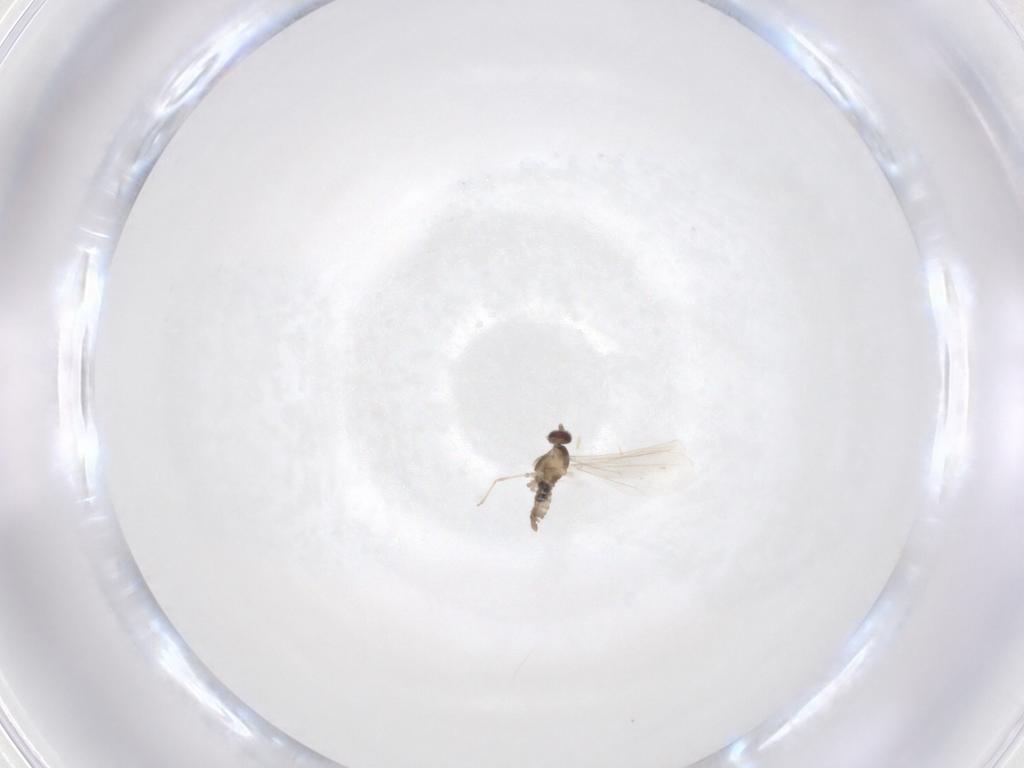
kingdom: Animalia
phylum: Arthropoda
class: Insecta
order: Diptera
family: Cecidomyiidae
